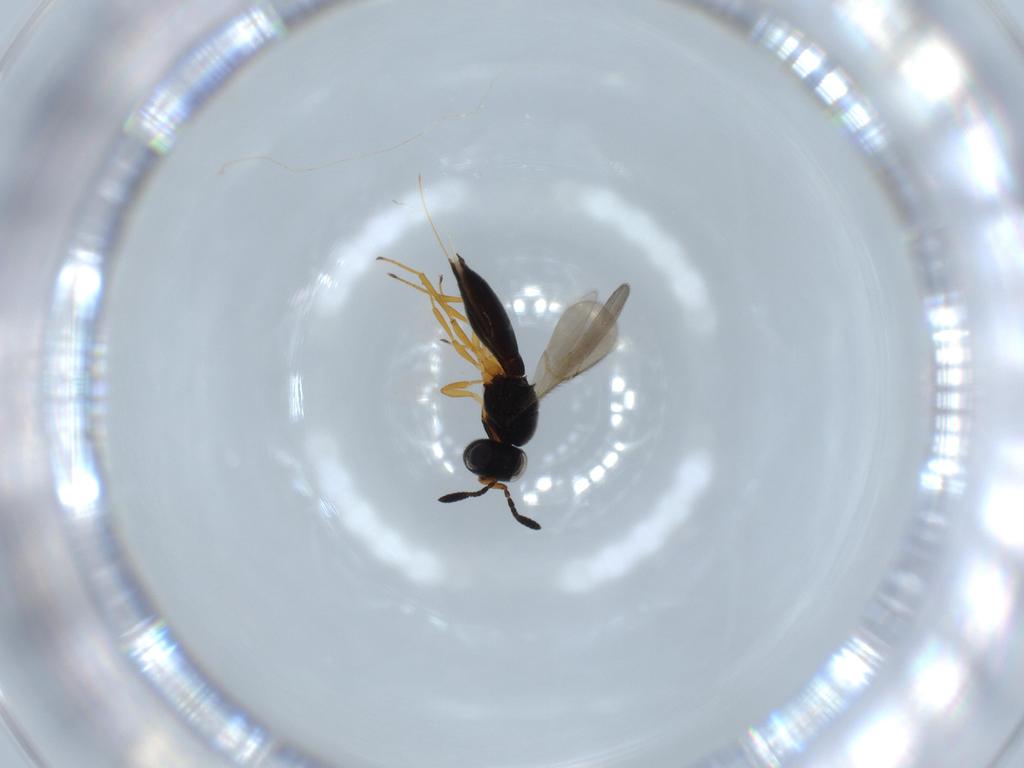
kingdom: Animalia
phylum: Arthropoda
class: Insecta
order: Hymenoptera
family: Scelionidae
